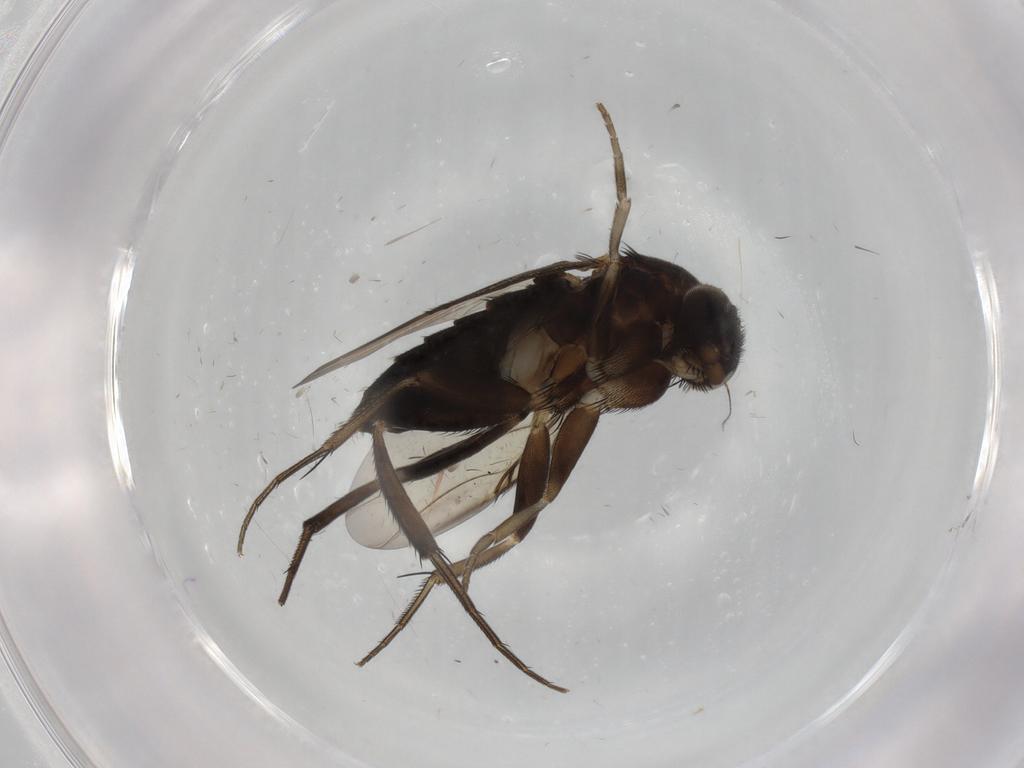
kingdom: Animalia
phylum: Arthropoda
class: Insecta
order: Diptera
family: Phoridae
